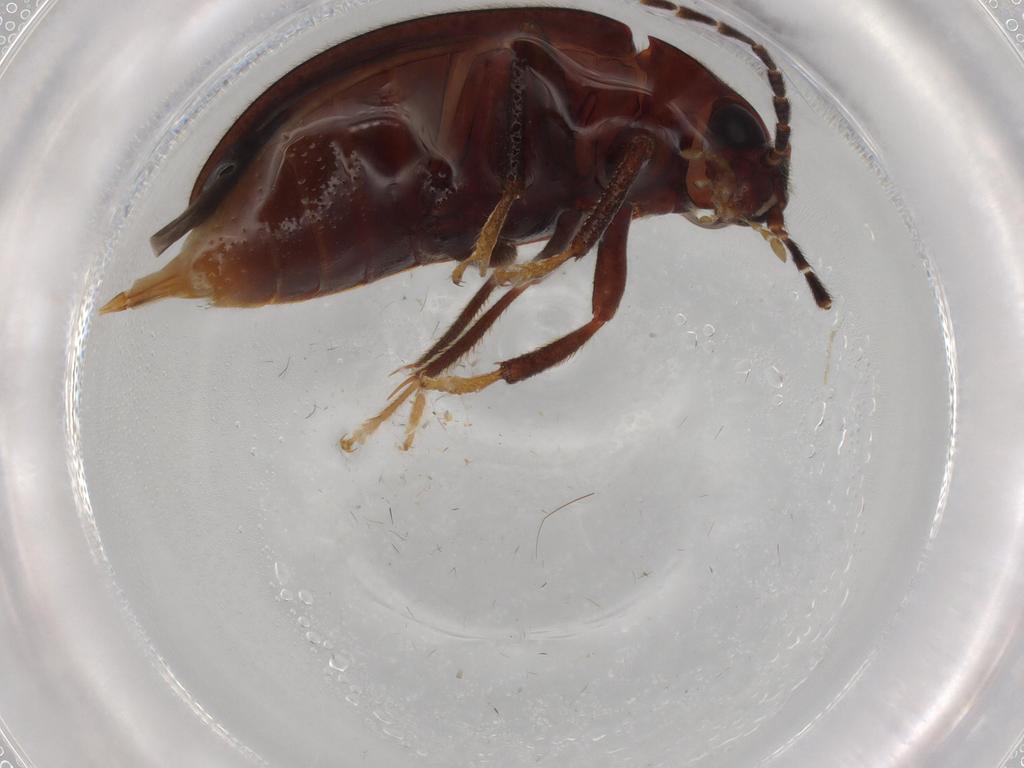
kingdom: Animalia
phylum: Arthropoda
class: Insecta
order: Coleoptera
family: Ptilodactylidae
